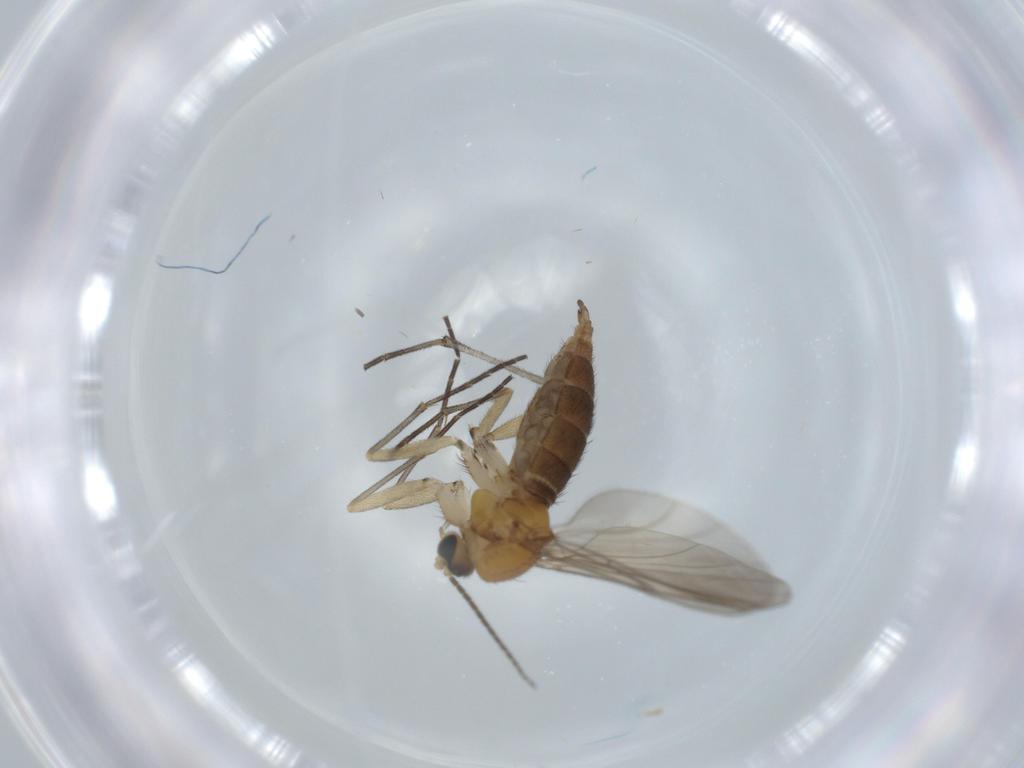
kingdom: Animalia
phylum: Arthropoda
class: Insecta
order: Diptera
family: Sciaridae
